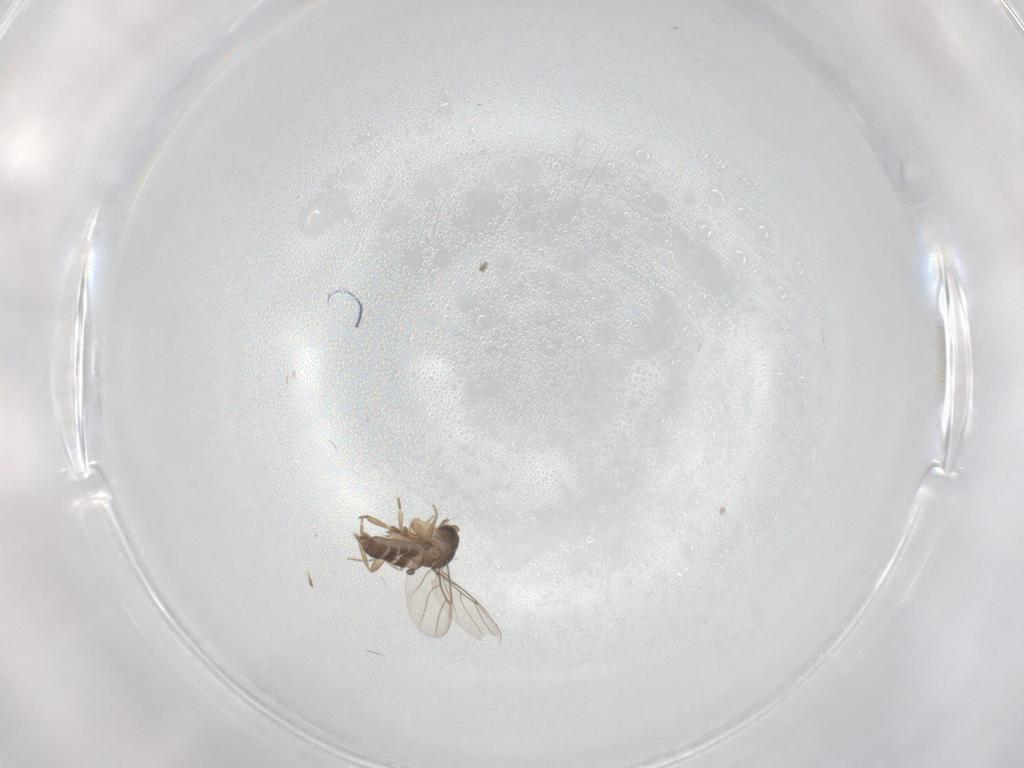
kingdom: Animalia
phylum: Arthropoda
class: Insecta
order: Diptera
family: Cecidomyiidae
